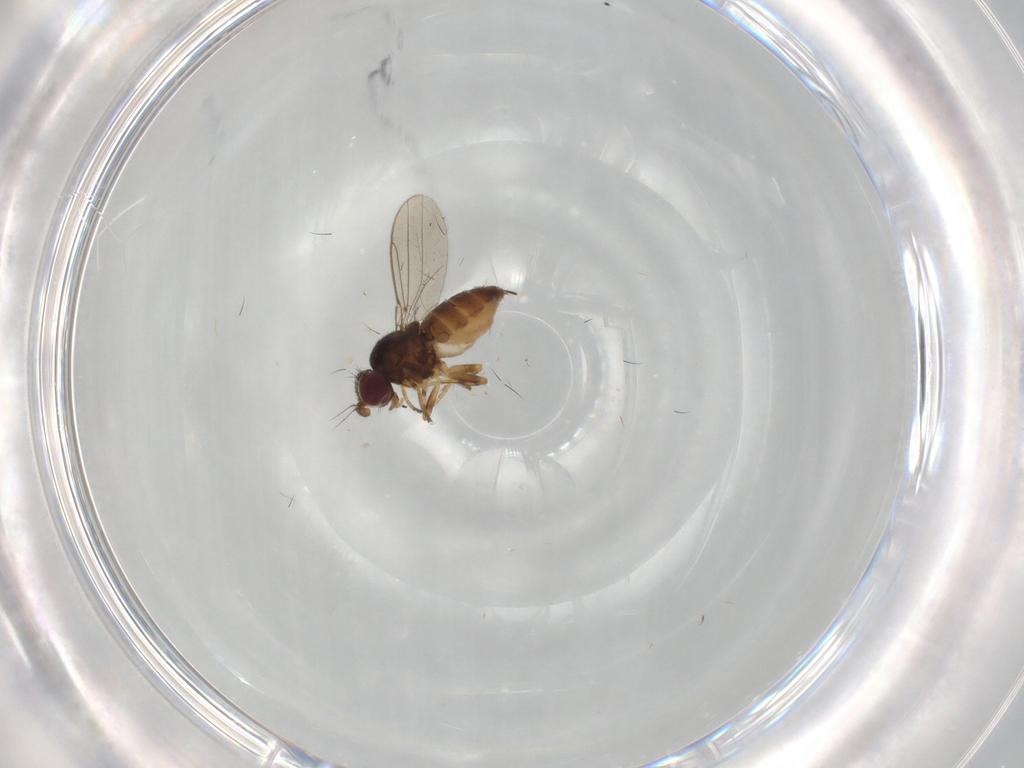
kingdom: Animalia
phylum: Arthropoda
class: Insecta
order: Diptera
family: Chloropidae
